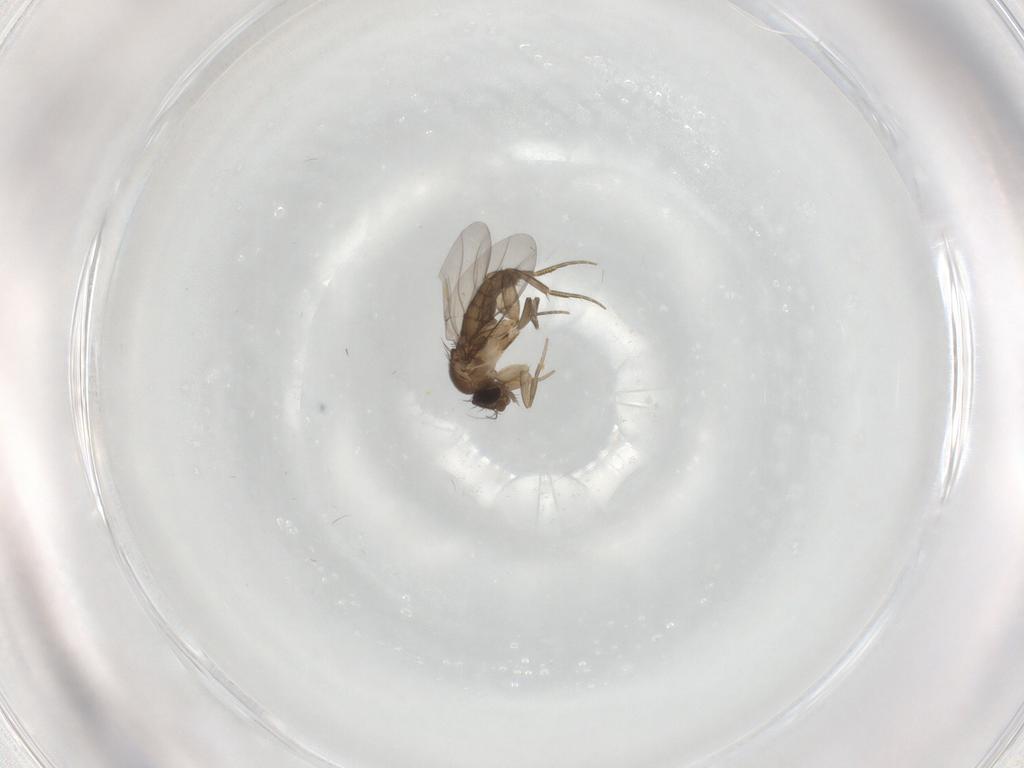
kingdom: Animalia
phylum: Arthropoda
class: Insecta
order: Diptera
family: Phoridae
